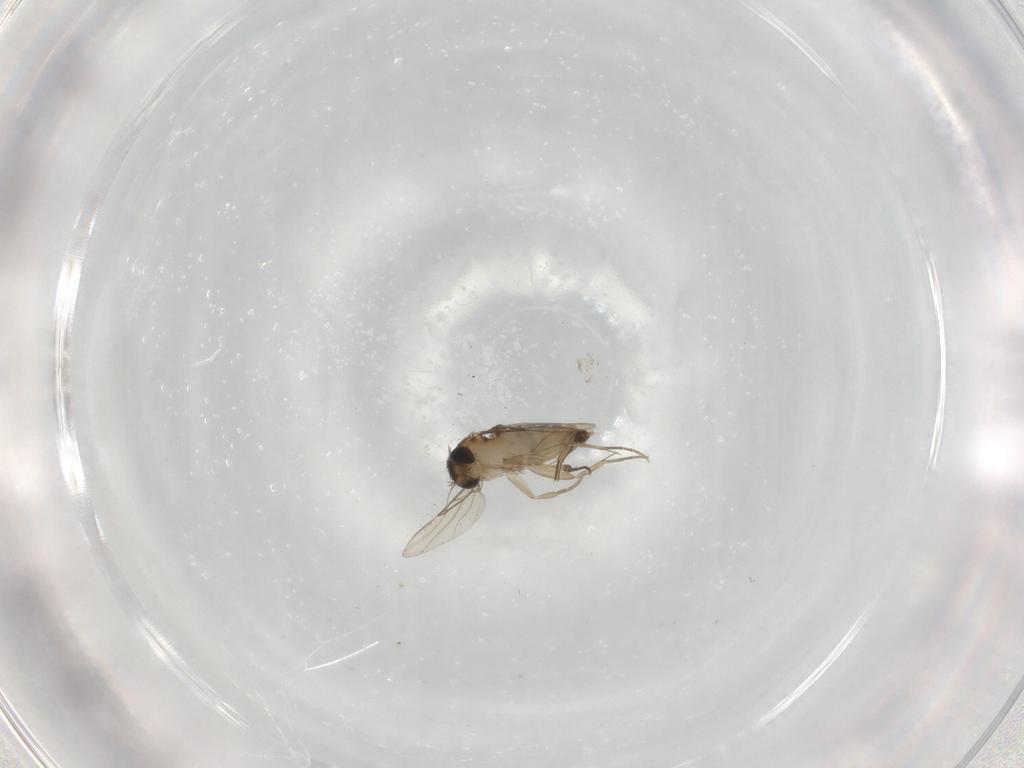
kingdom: Animalia
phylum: Arthropoda
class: Insecta
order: Diptera
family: Phoridae
